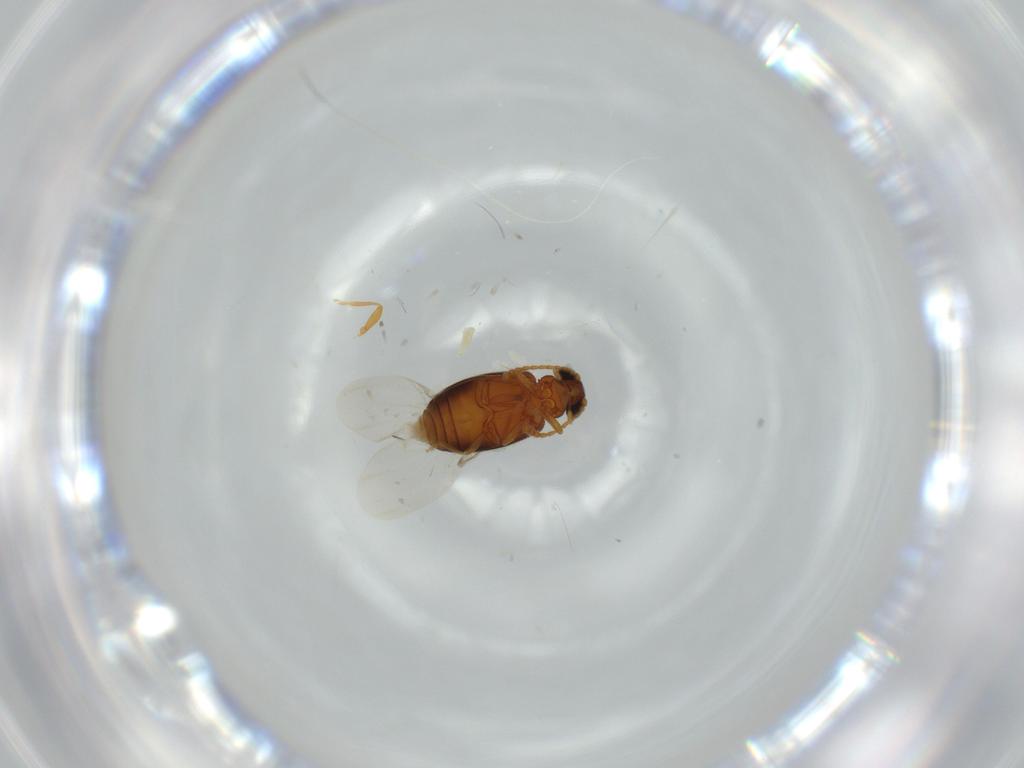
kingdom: Animalia
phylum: Arthropoda
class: Insecta
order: Coleoptera
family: Aderidae
